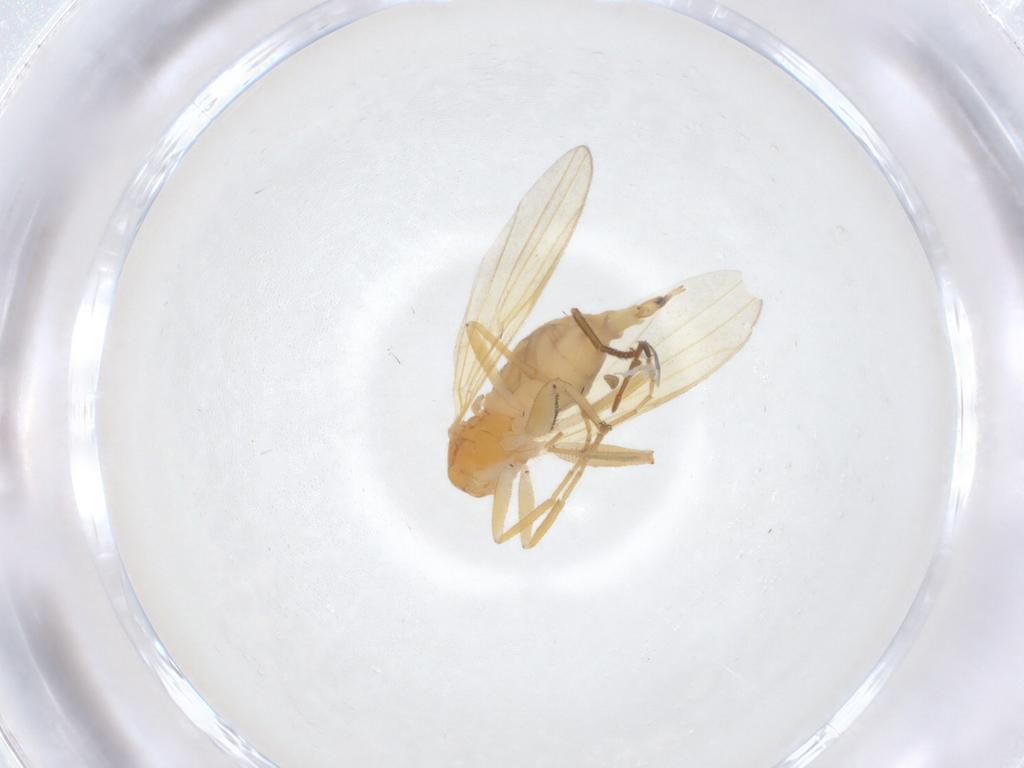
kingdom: Animalia
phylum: Arthropoda
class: Insecta
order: Diptera
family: Hybotidae
